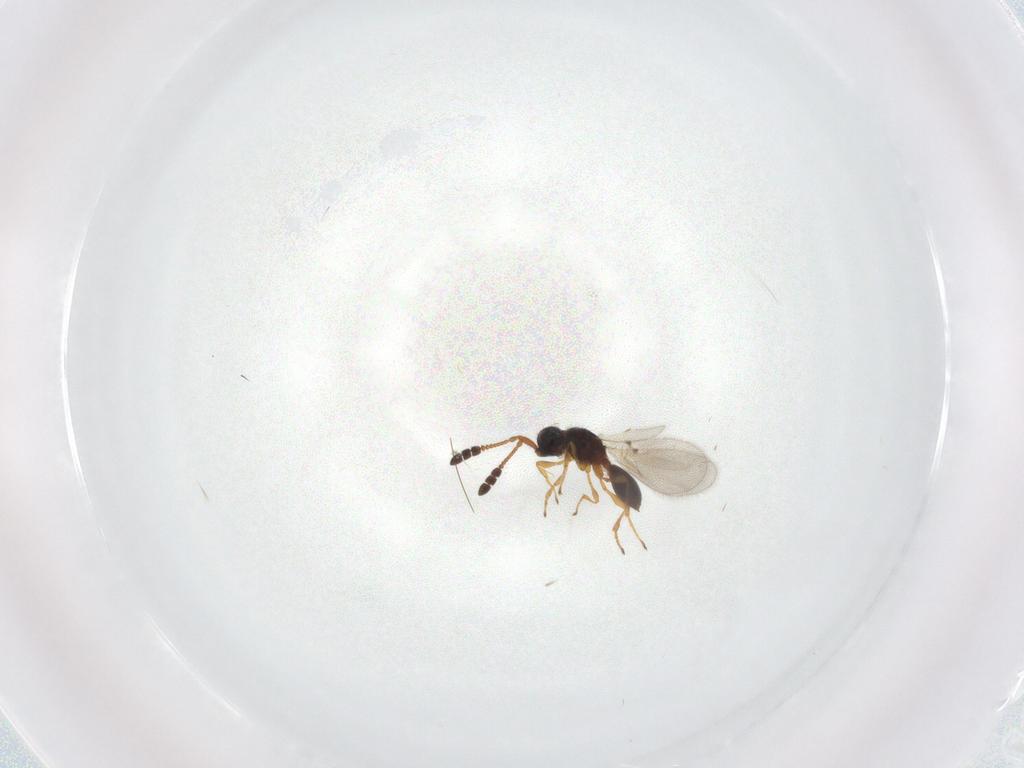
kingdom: Animalia
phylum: Arthropoda
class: Insecta
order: Hymenoptera
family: Diapriidae
